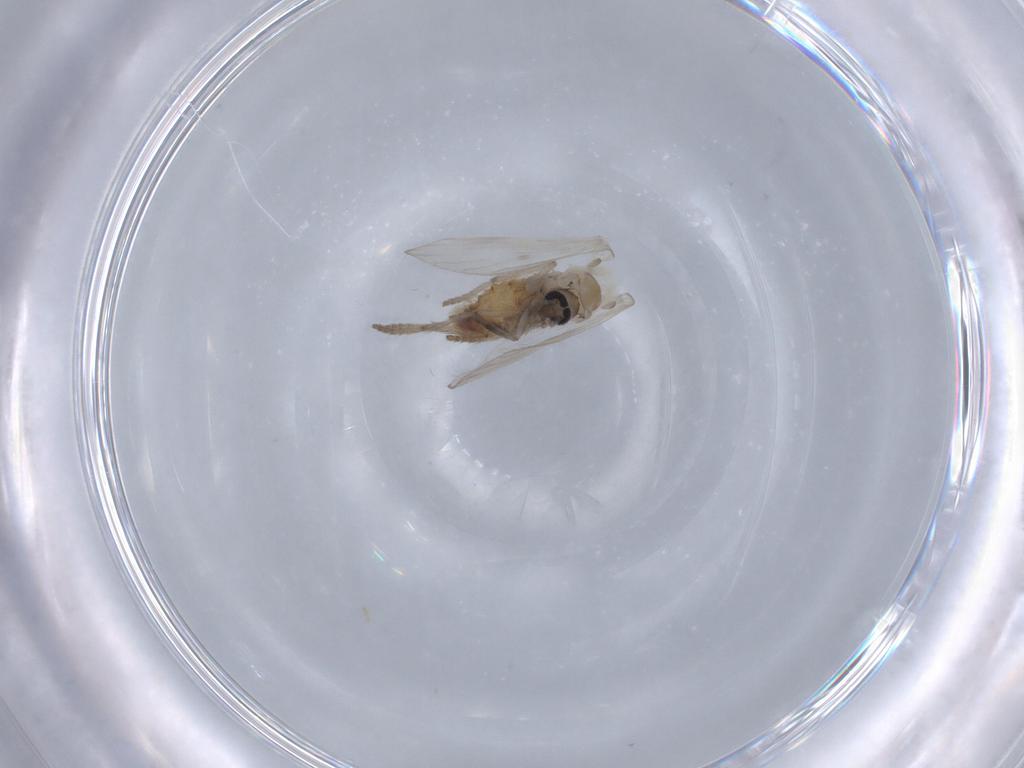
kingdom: Animalia
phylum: Arthropoda
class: Insecta
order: Diptera
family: Psychodidae
